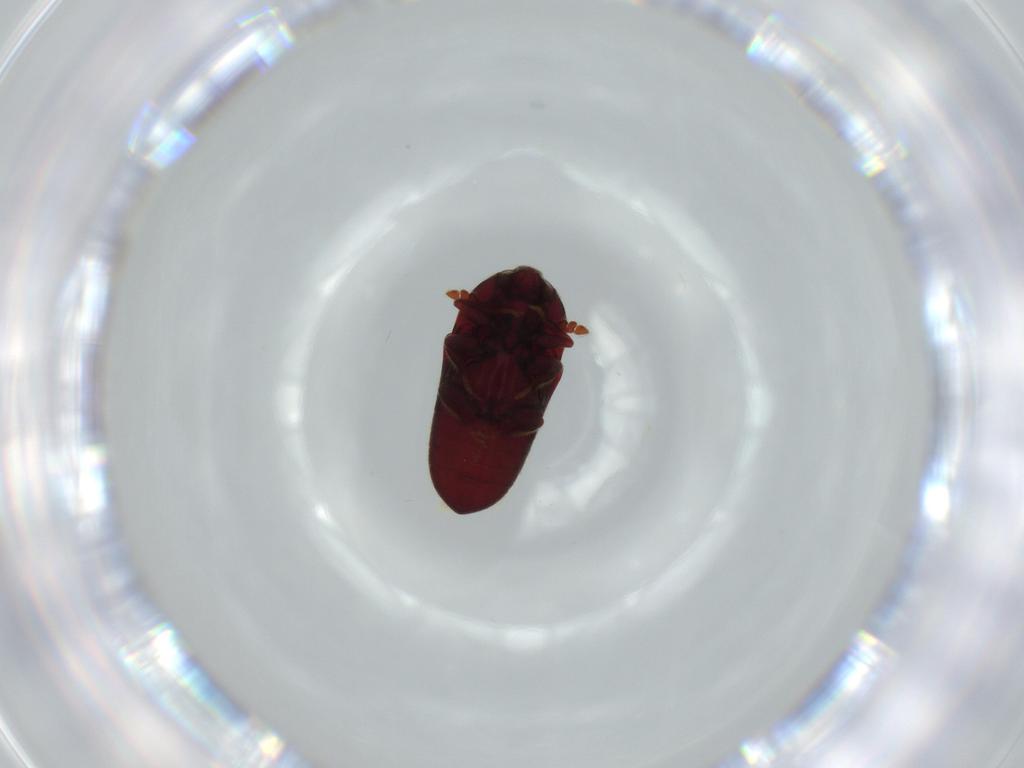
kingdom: Animalia
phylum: Arthropoda
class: Insecta
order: Coleoptera
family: Throscidae
